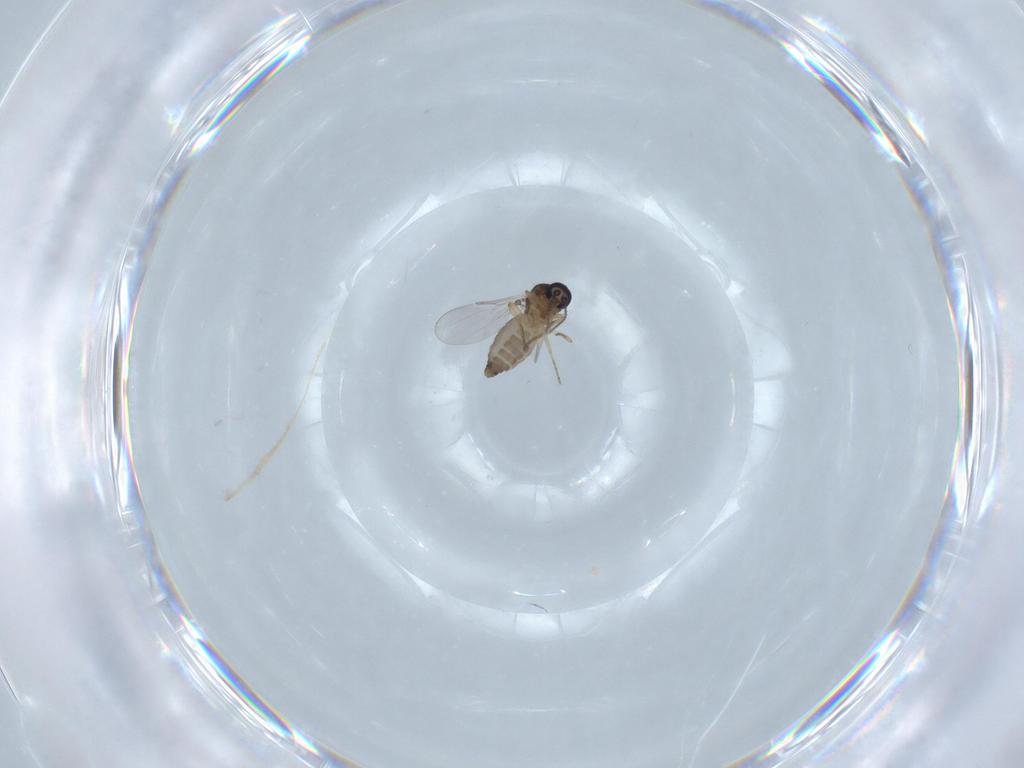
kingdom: Animalia
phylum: Arthropoda
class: Insecta
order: Diptera
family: Ceratopogonidae
